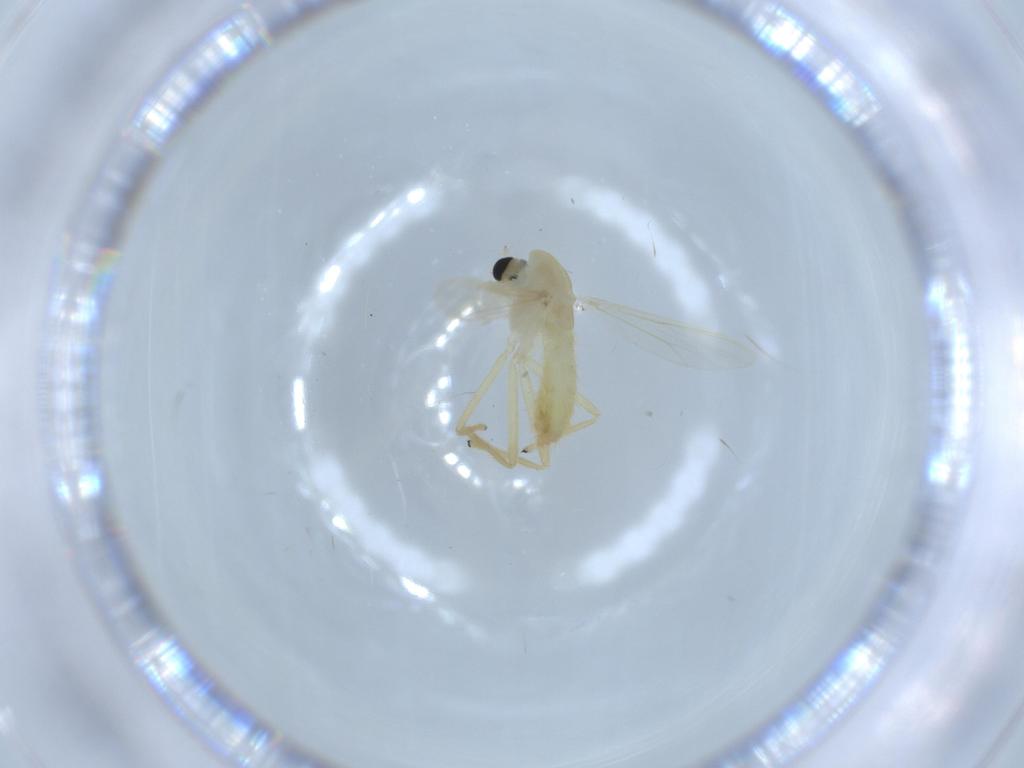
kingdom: Animalia
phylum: Arthropoda
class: Insecta
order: Diptera
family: Chironomidae
